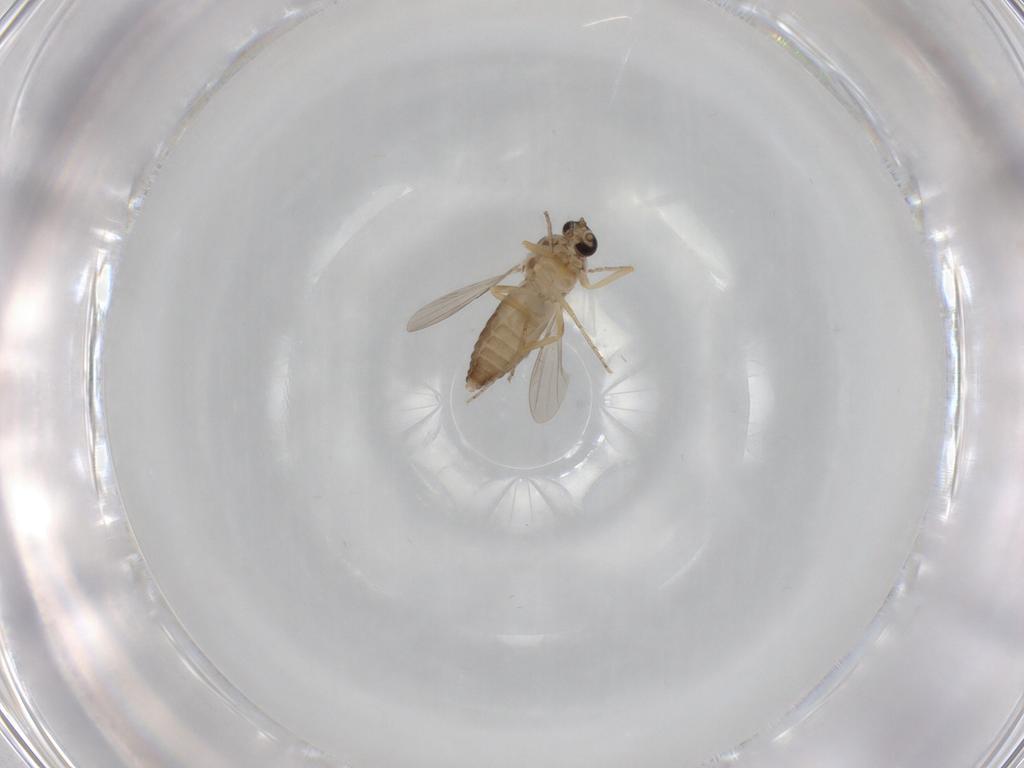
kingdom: Animalia
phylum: Arthropoda
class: Insecta
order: Diptera
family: Ceratopogonidae
